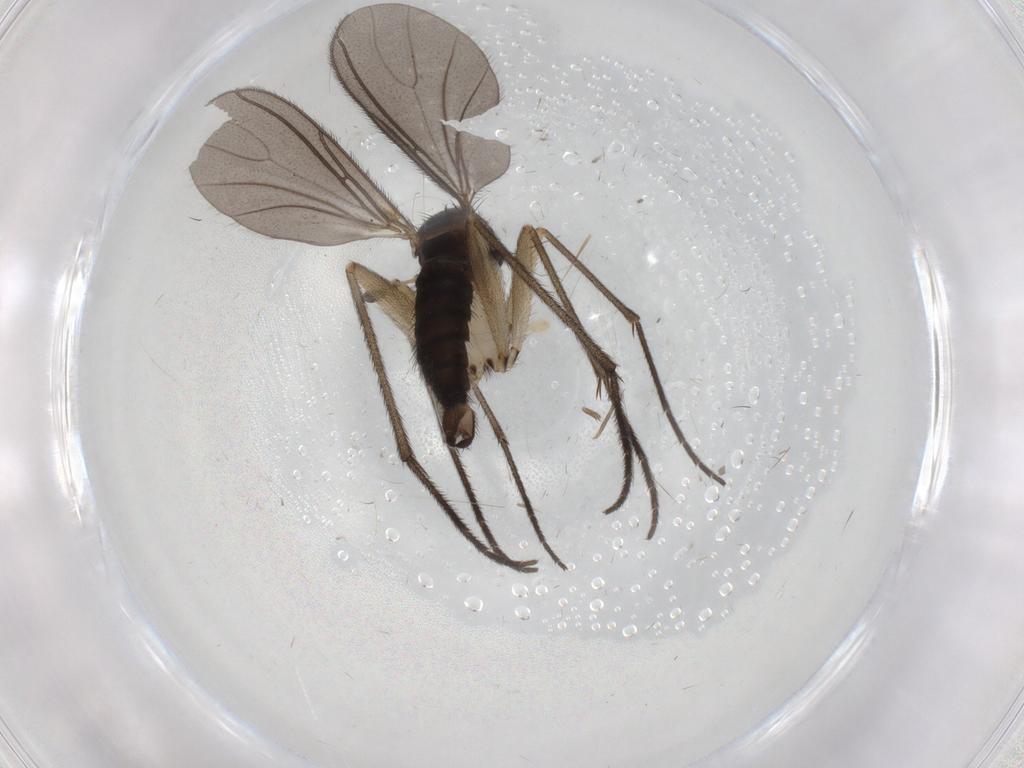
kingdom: Animalia
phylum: Arthropoda
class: Insecta
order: Diptera
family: Sciaridae
